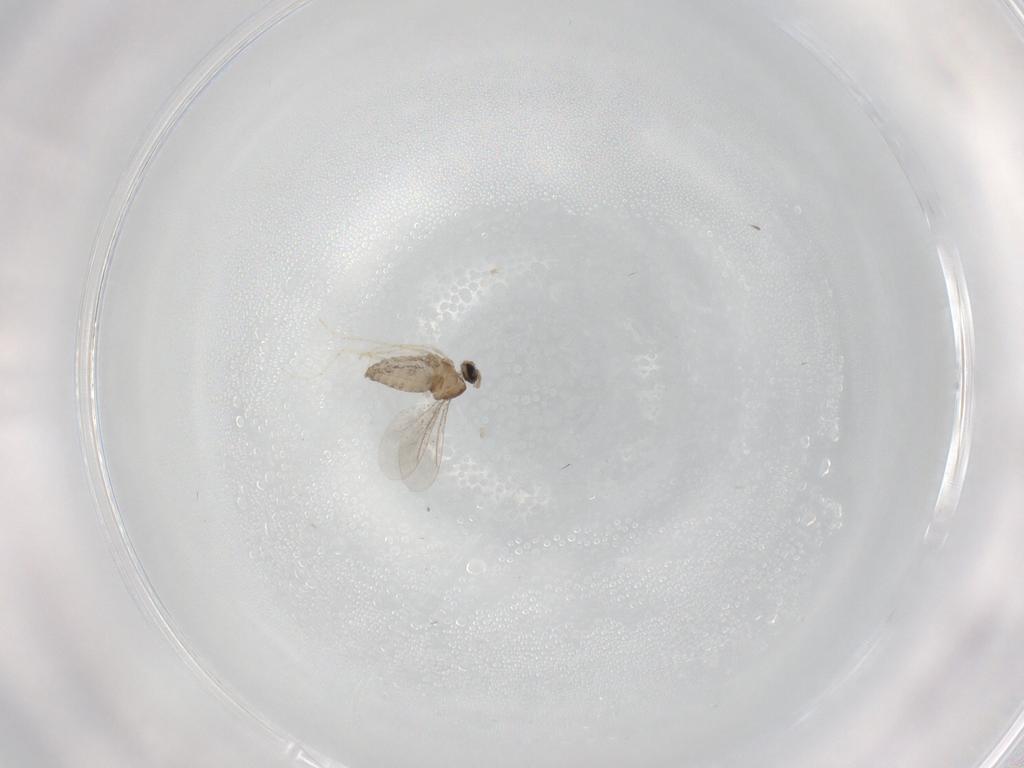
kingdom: Animalia
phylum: Arthropoda
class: Insecta
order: Diptera
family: Cecidomyiidae
